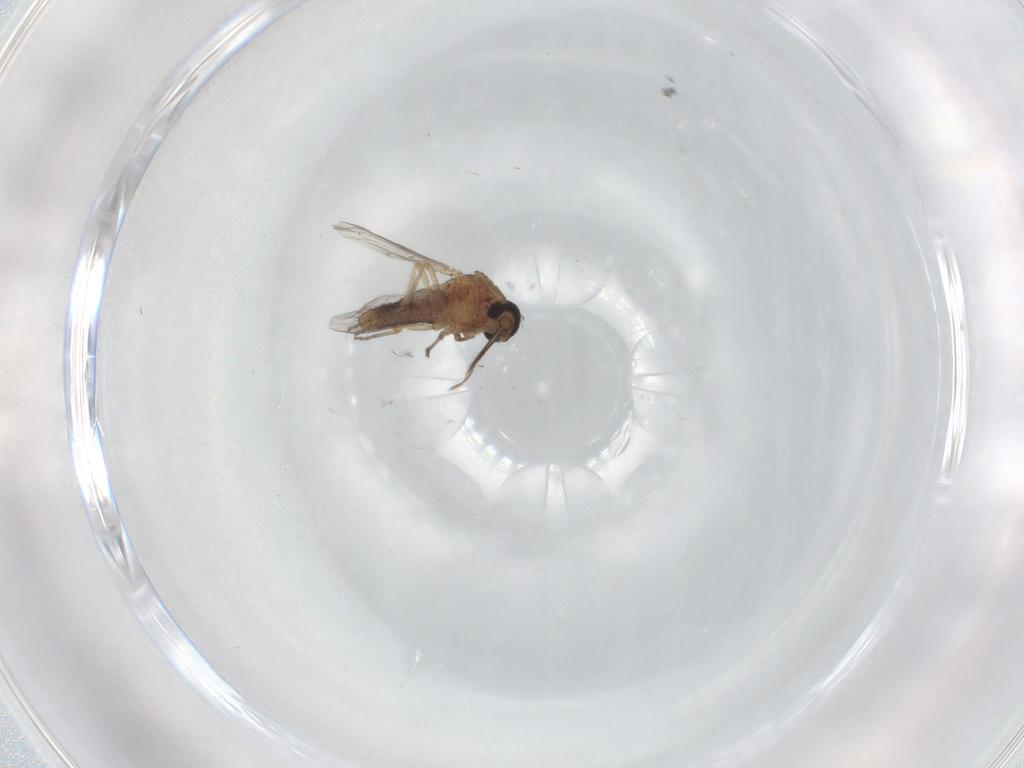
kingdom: Animalia
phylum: Arthropoda
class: Insecta
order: Diptera
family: Ceratopogonidae
